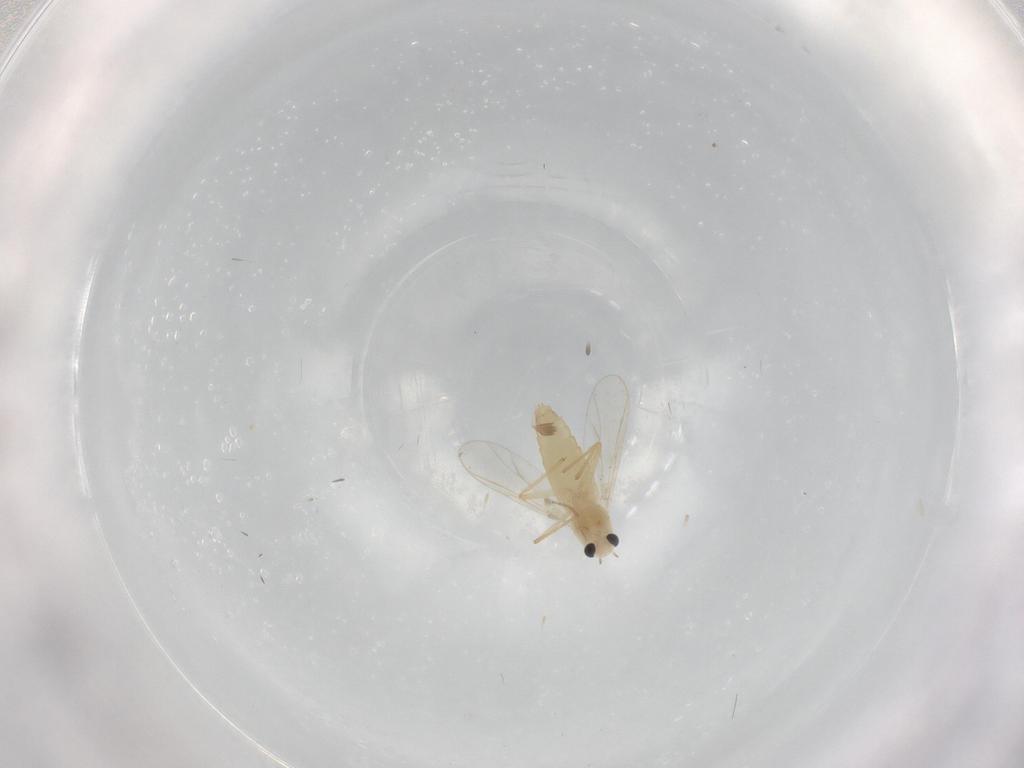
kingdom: Animalia
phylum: Arthropoda
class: Insecta
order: Diptera
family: Chironomidae
